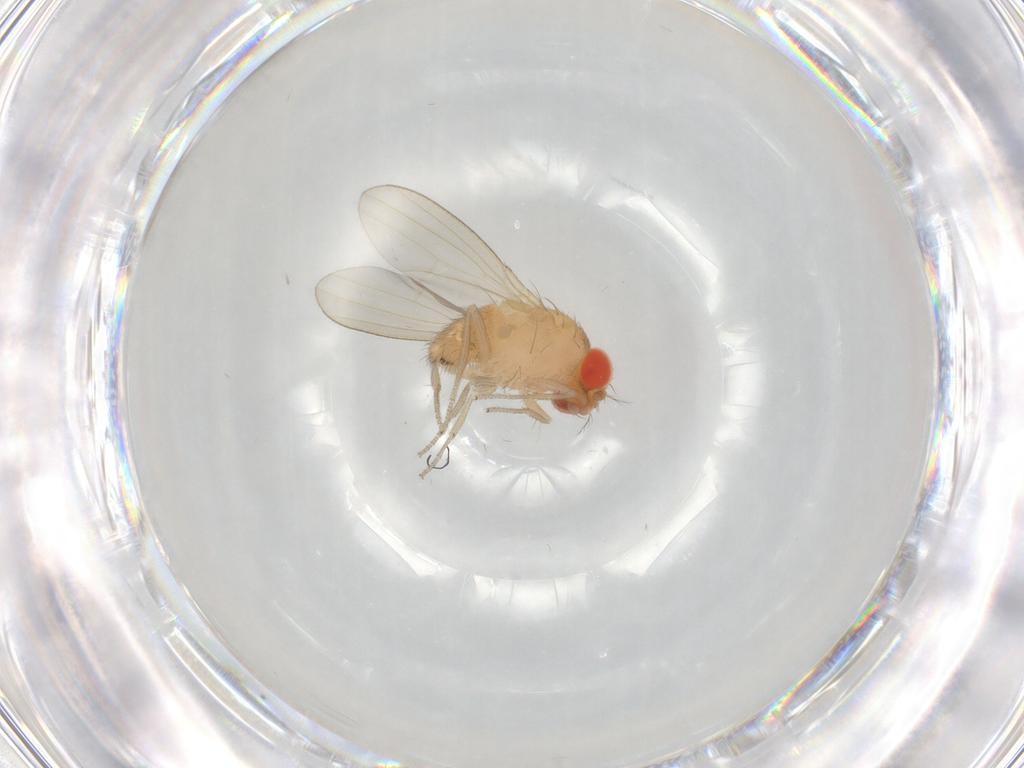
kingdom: Animalia
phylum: Arthropoda
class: Insecta
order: Diptera
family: Drosophilidae
